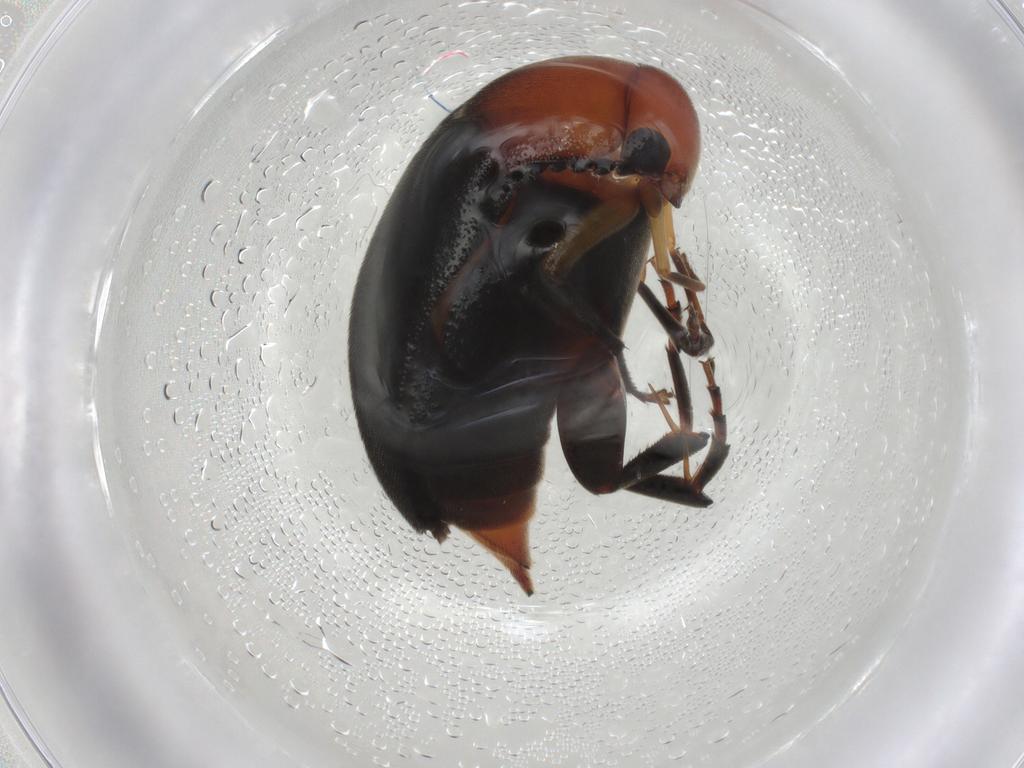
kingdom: Animalia
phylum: Arthropoda
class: Insecta
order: Coleoptera
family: Mordellidae
